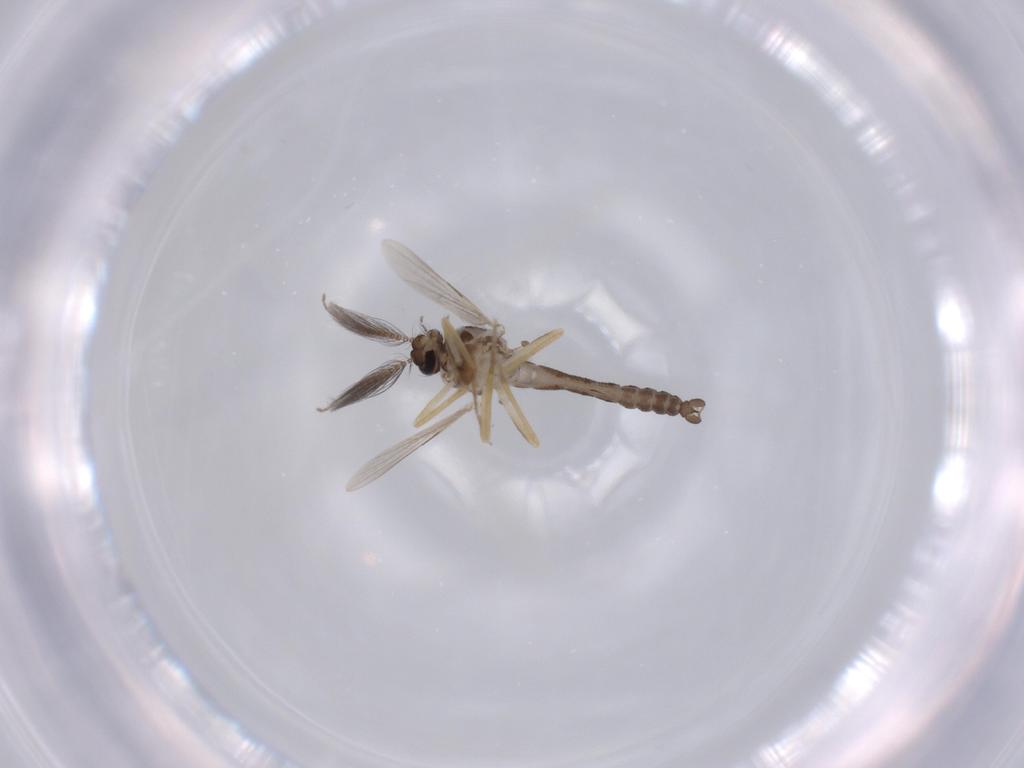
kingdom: Animalia
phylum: Arthropoda
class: Insecta
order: Diptera
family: Ceratopogonidae
